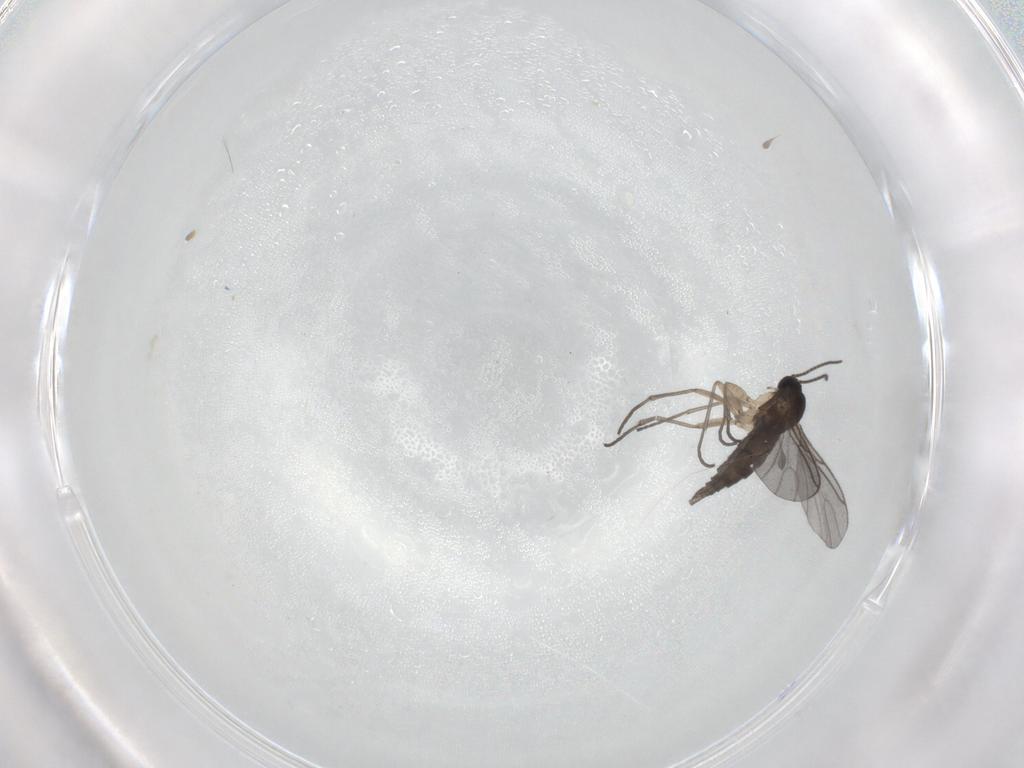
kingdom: Animalia
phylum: Arthropoda
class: Insecta
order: Diptera
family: Sciaridae
